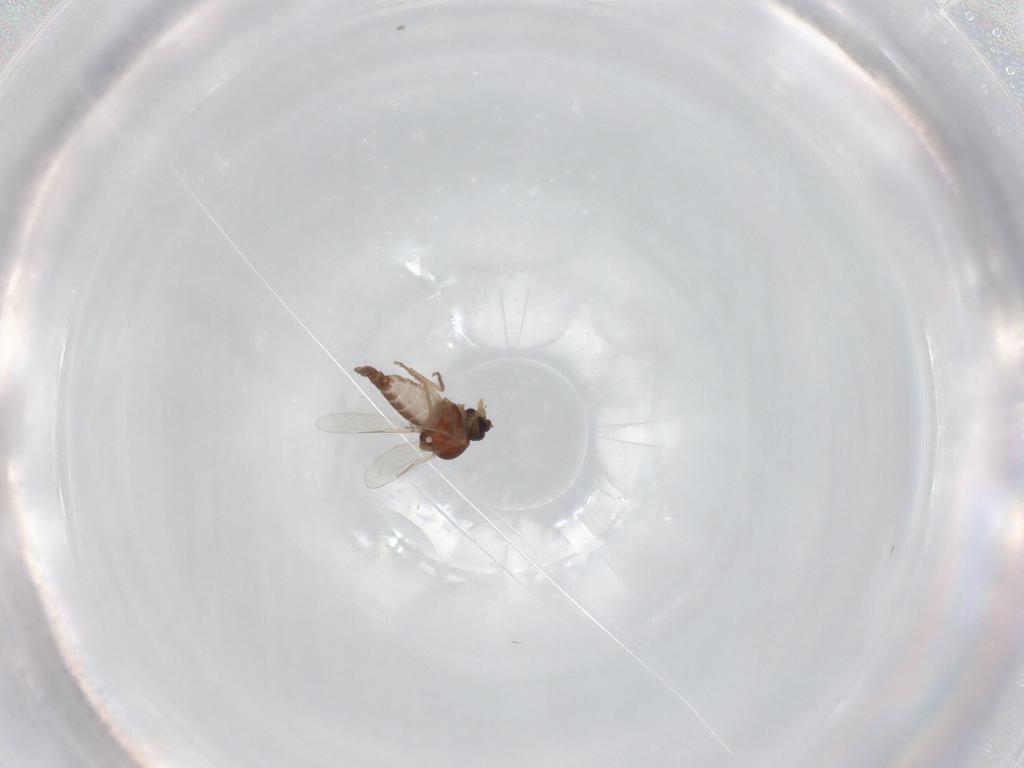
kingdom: Animalia
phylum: Arthropoda
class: Insecta
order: Diptera
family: Ceratopogonidae
